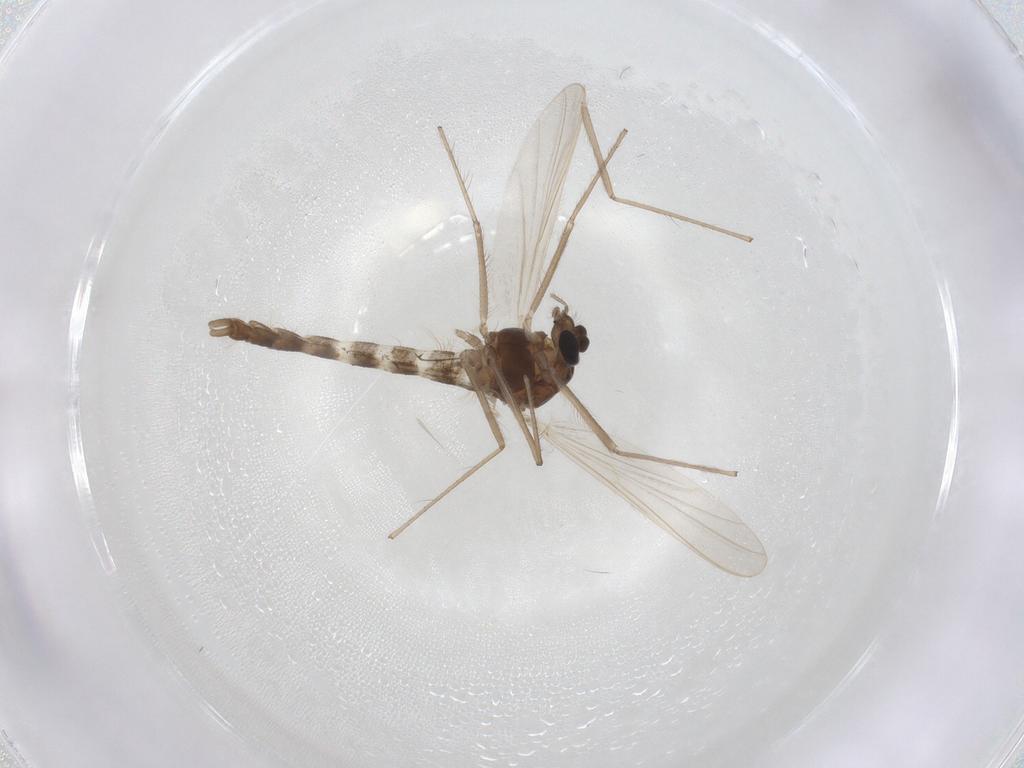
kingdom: Animalia
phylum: Arthropoda
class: Insecta
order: Diptera
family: Chironomidae
